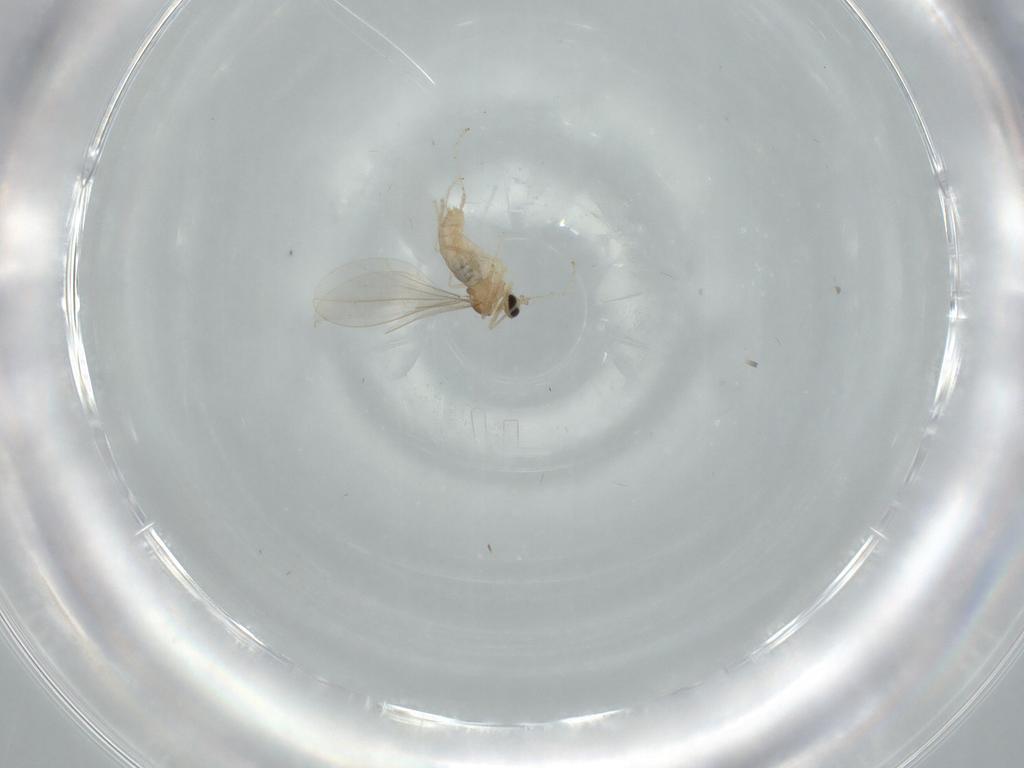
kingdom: Animalia
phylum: Arthropoda
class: Insecta
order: Diptera
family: Cecidomyiidae
